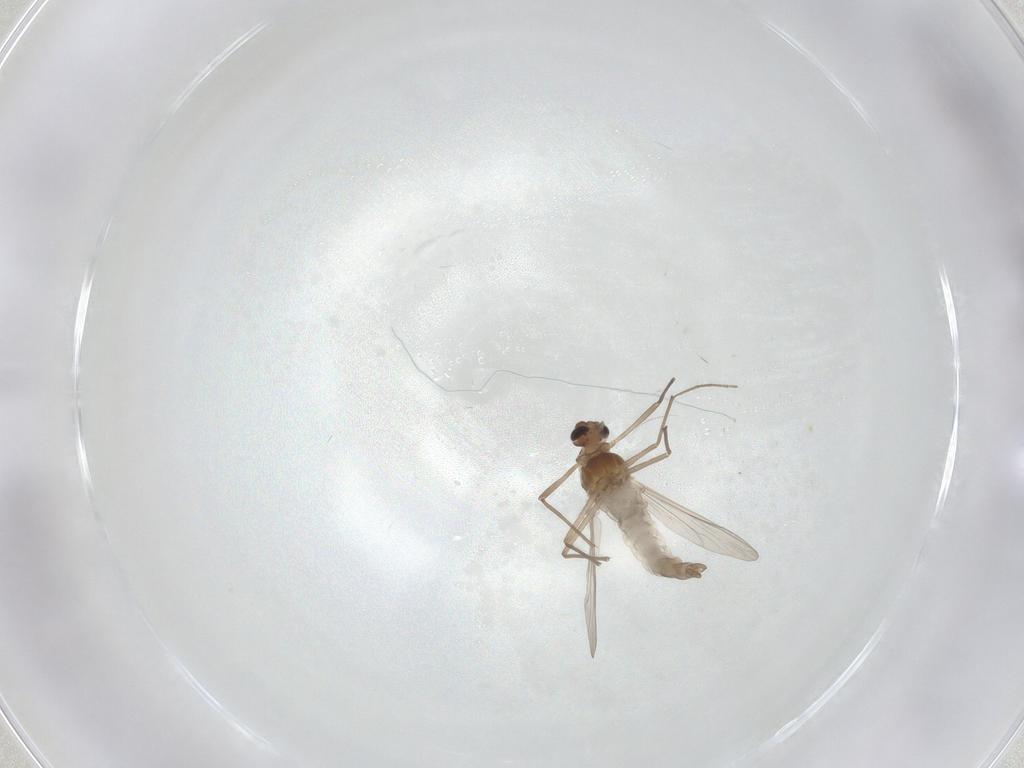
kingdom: Animalia
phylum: Arthropoda
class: Insecta
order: Diptera
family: Chironomidae
